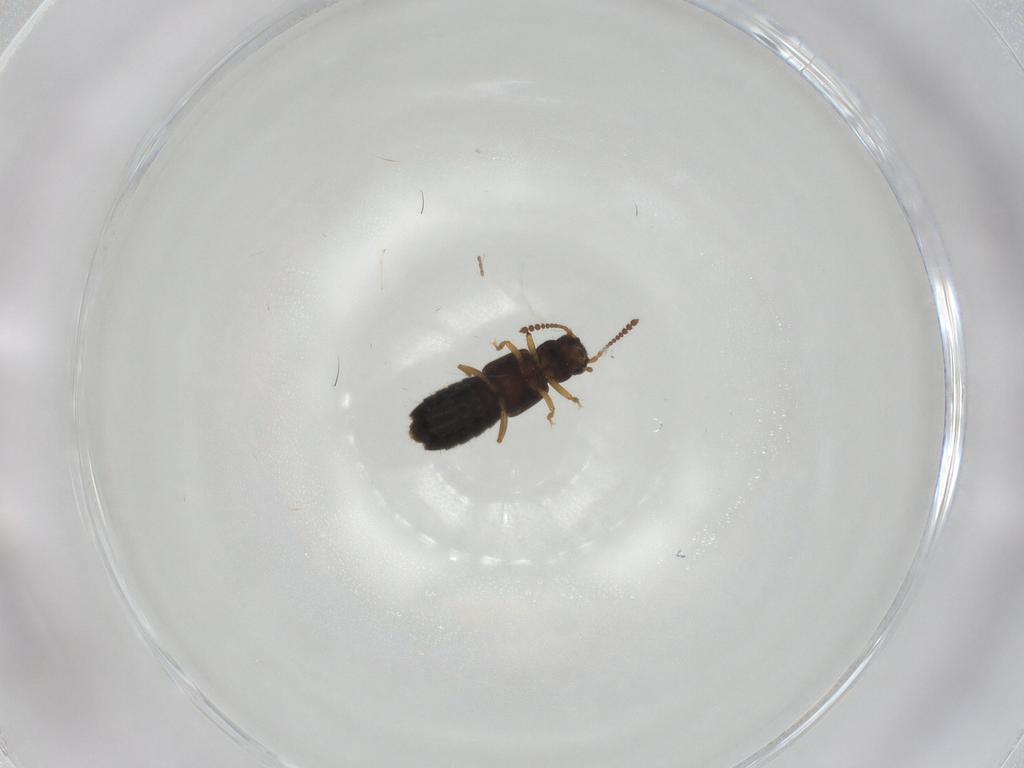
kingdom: Animalia
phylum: Arthropoda
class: Insecta
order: Coleoptera
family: Staphylinidae
